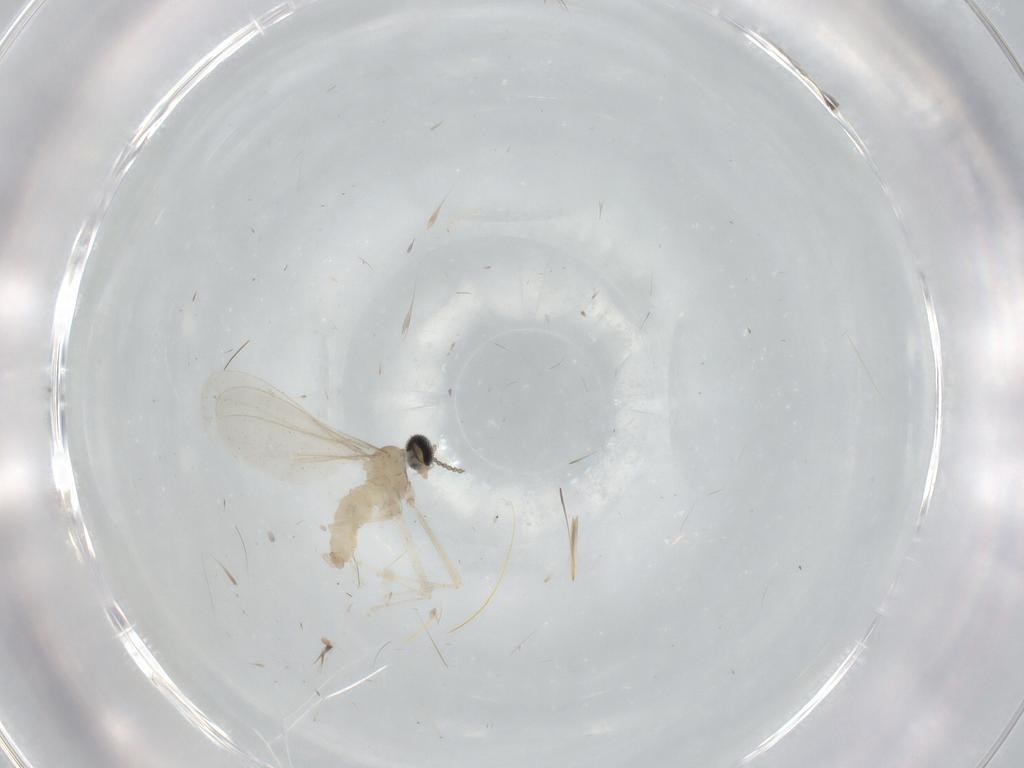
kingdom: Animalia
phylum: Arthropoda
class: Insecta
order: Diptera
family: Cecidomyiidae
